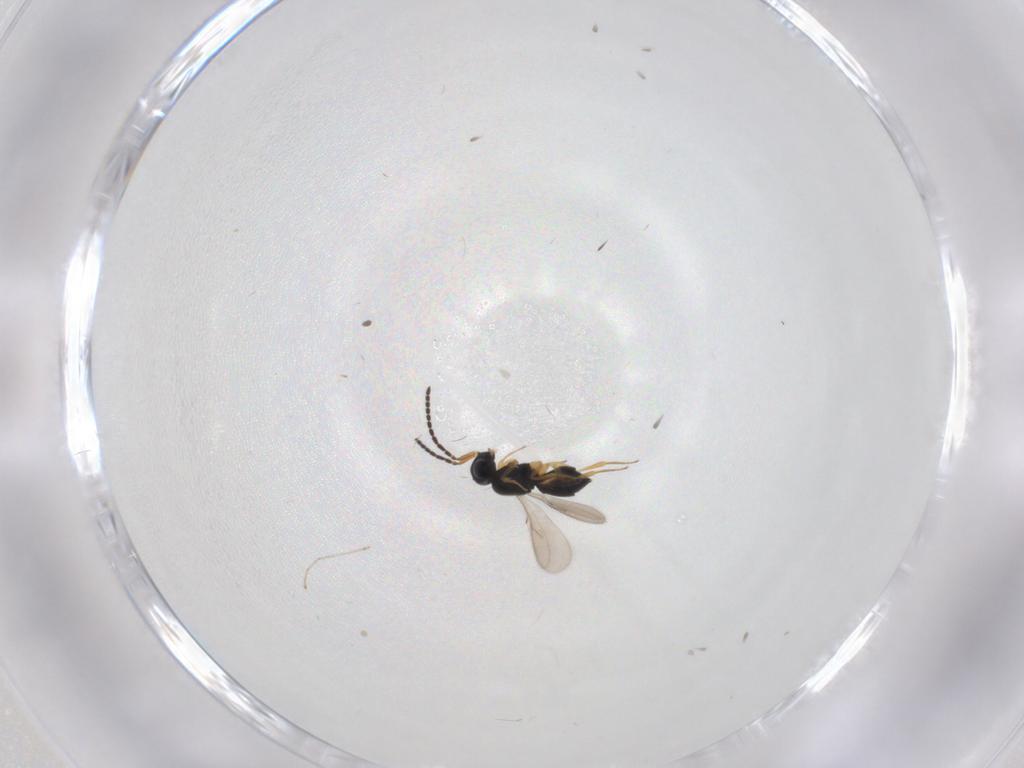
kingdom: Animalia
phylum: Arthropoda
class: Insecta
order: Hymenoptera
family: Scelionidae
